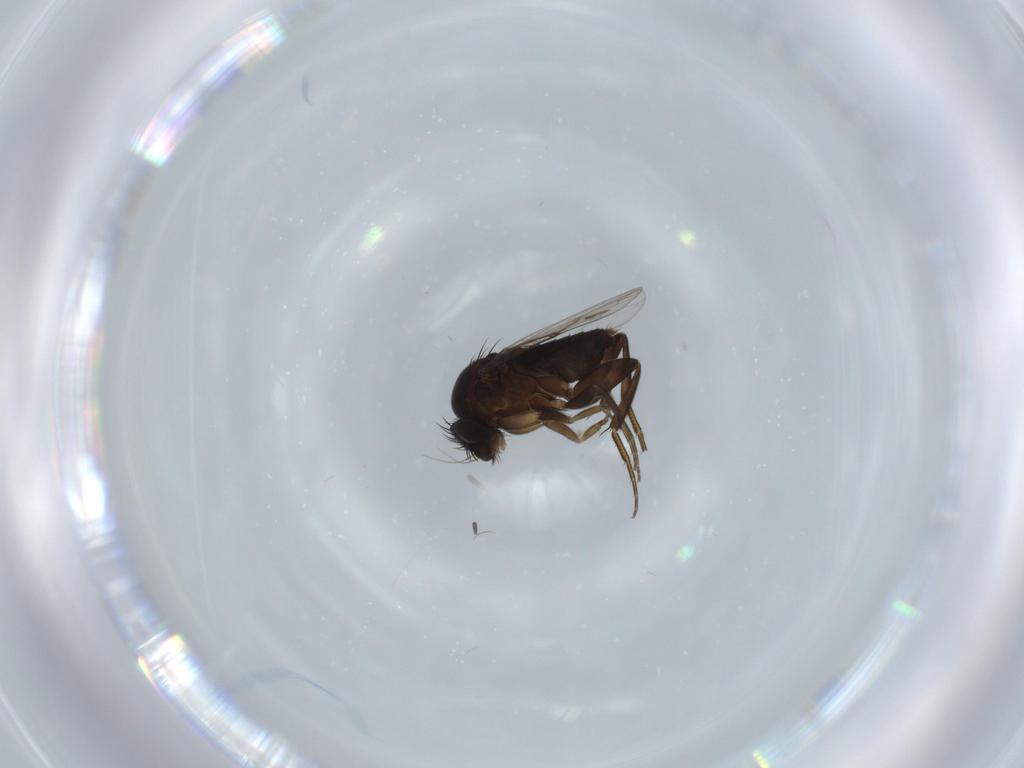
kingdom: Animalia
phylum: Arthropoda
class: Insecta
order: Diptera
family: Phoridae
